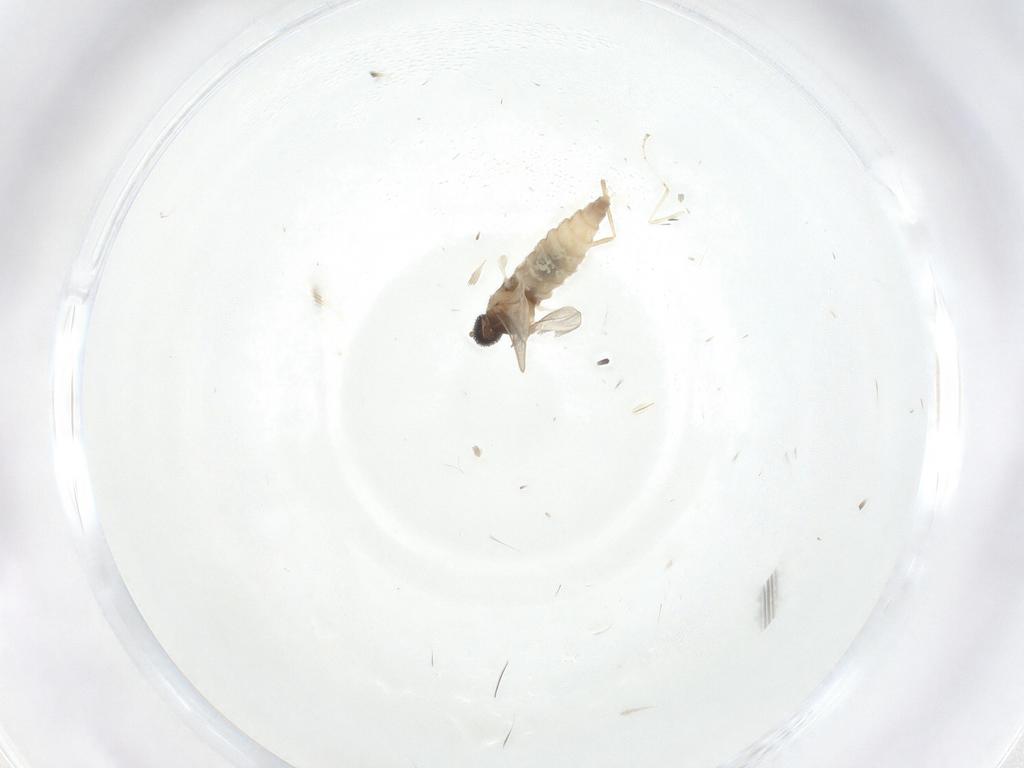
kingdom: Animalia
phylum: Arthropoda
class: Insecta
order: Diptera
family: Cecidomyiidae
